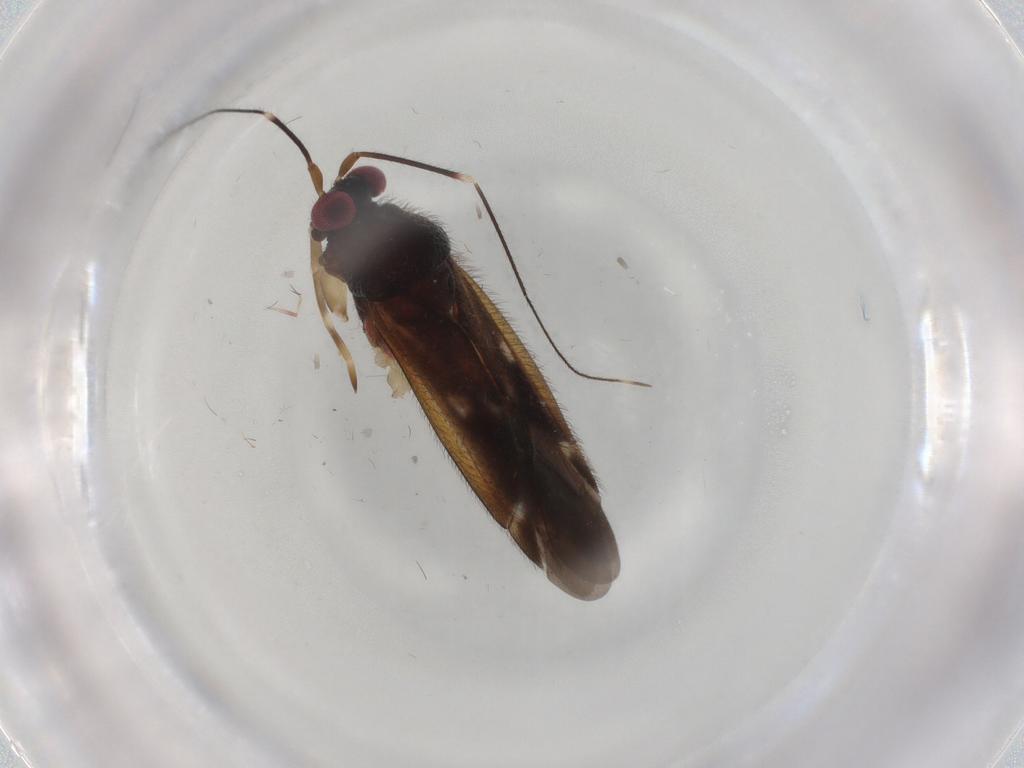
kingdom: Animalia
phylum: Arthropoda
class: Insecta
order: Hemiptera
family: Miridae
